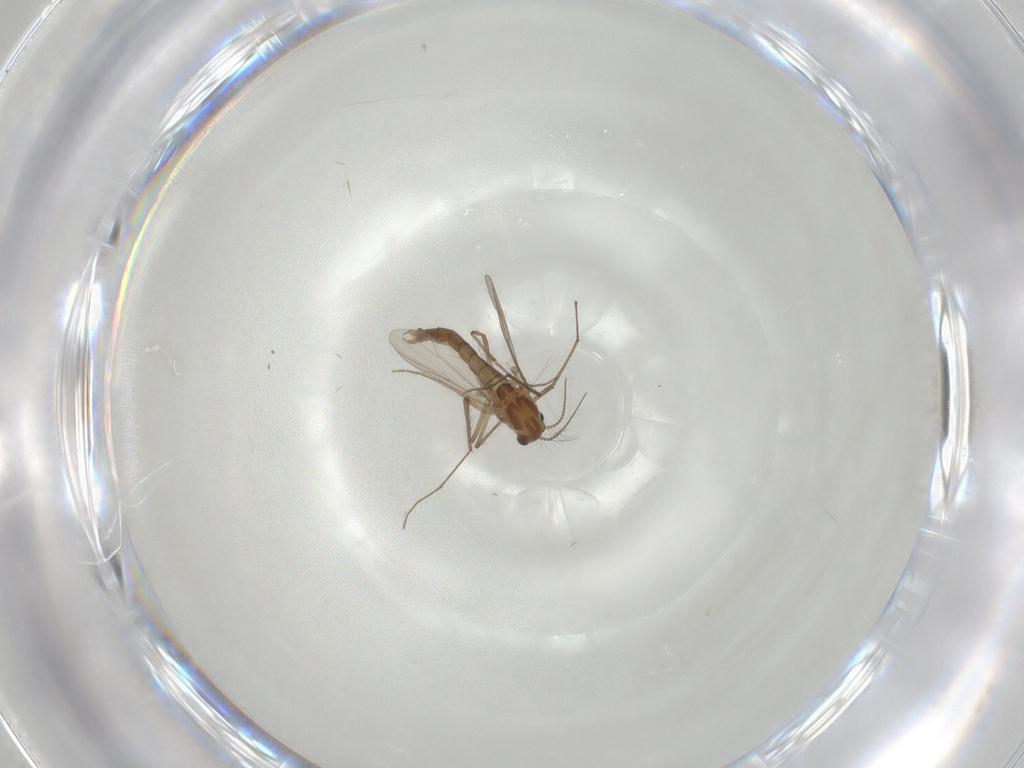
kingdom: Animalia
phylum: Arthropoda
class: Insecta
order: Diptera
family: Chironomidae
